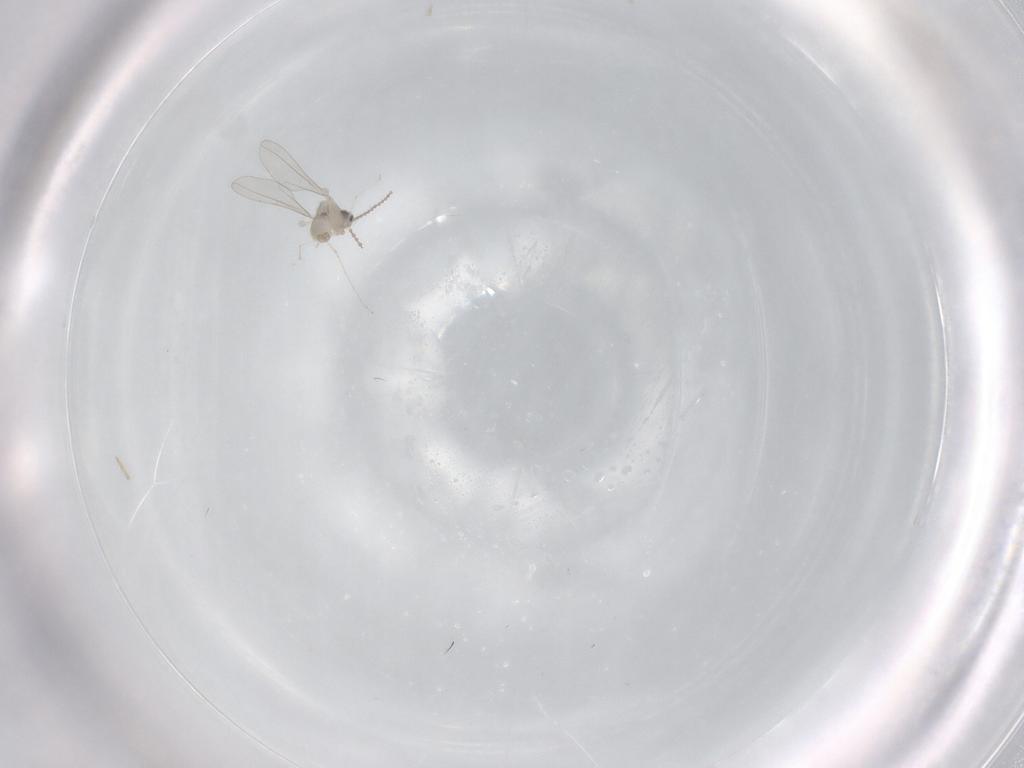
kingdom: Animalia
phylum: Arthropoda
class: Insecta
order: Diptera
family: Cecidomyiidae
